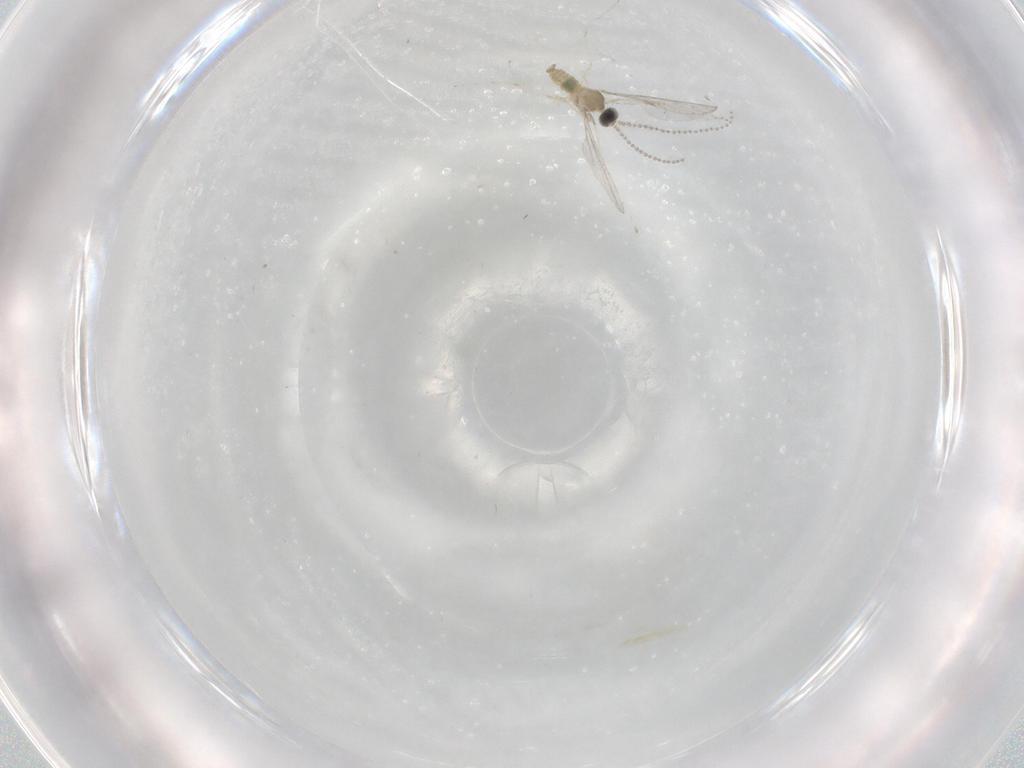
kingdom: Animalia
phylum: Arthropoda
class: Insecta
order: Diptera
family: Cecidomyiidae
